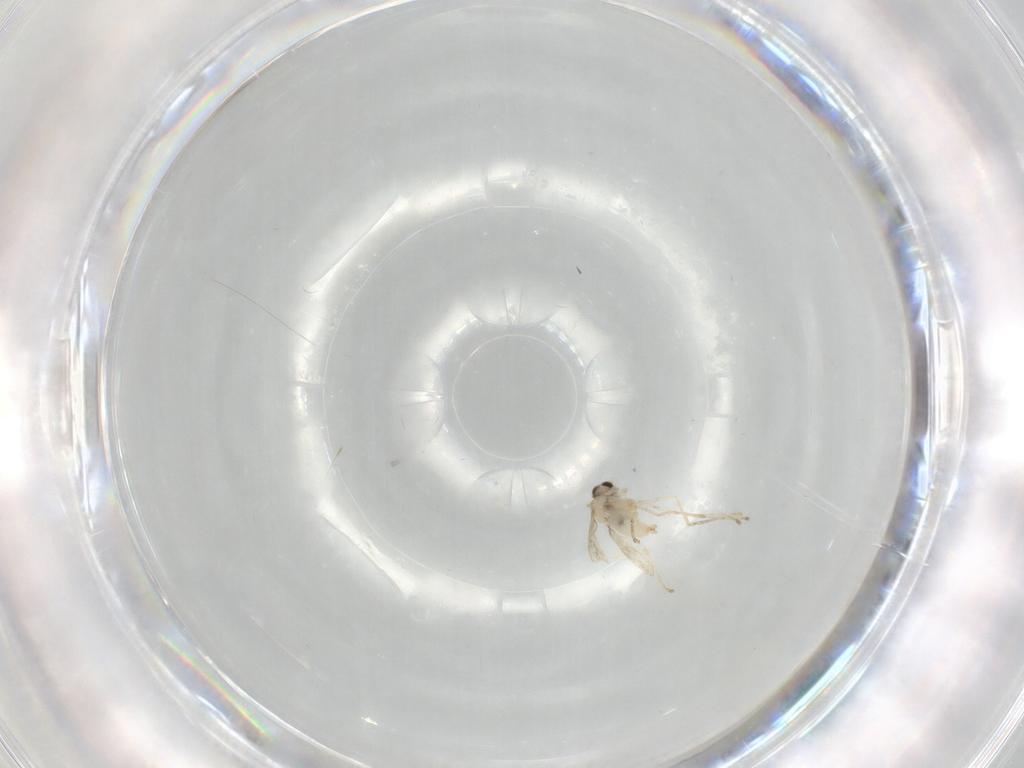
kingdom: Animalia
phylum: Arthropoda
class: Insecta
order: Diptera
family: Cecidomyiidae
